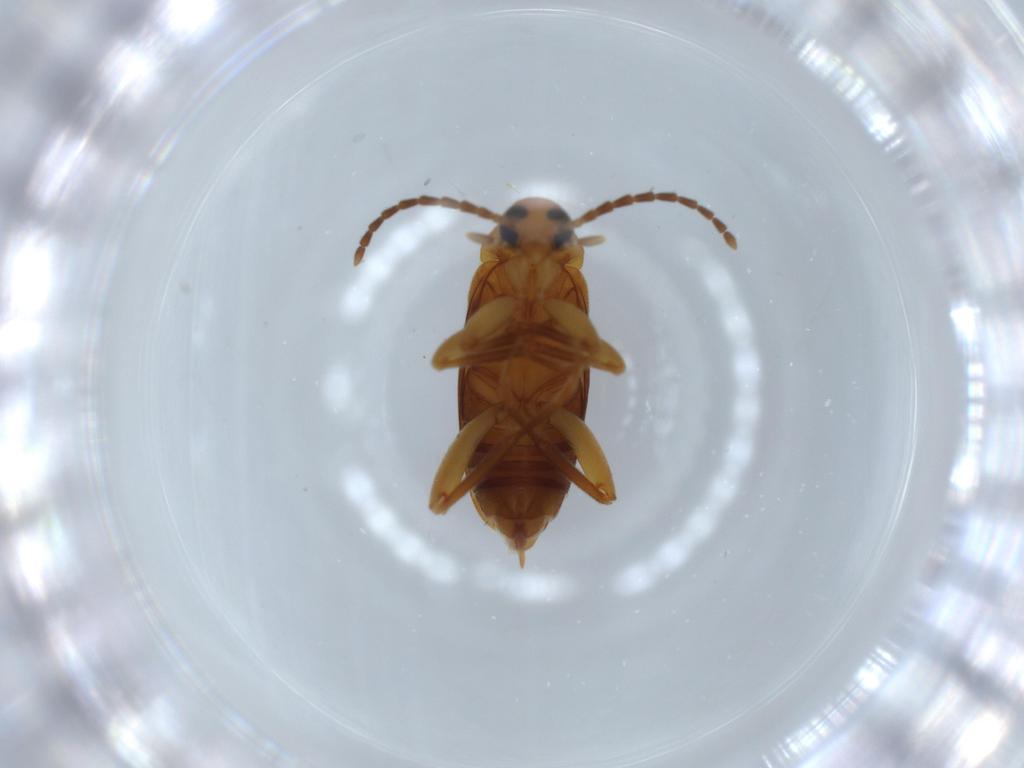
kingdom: Animalia
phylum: Arthropoda
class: Insecta
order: Coleoptera
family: Scraptiidae
